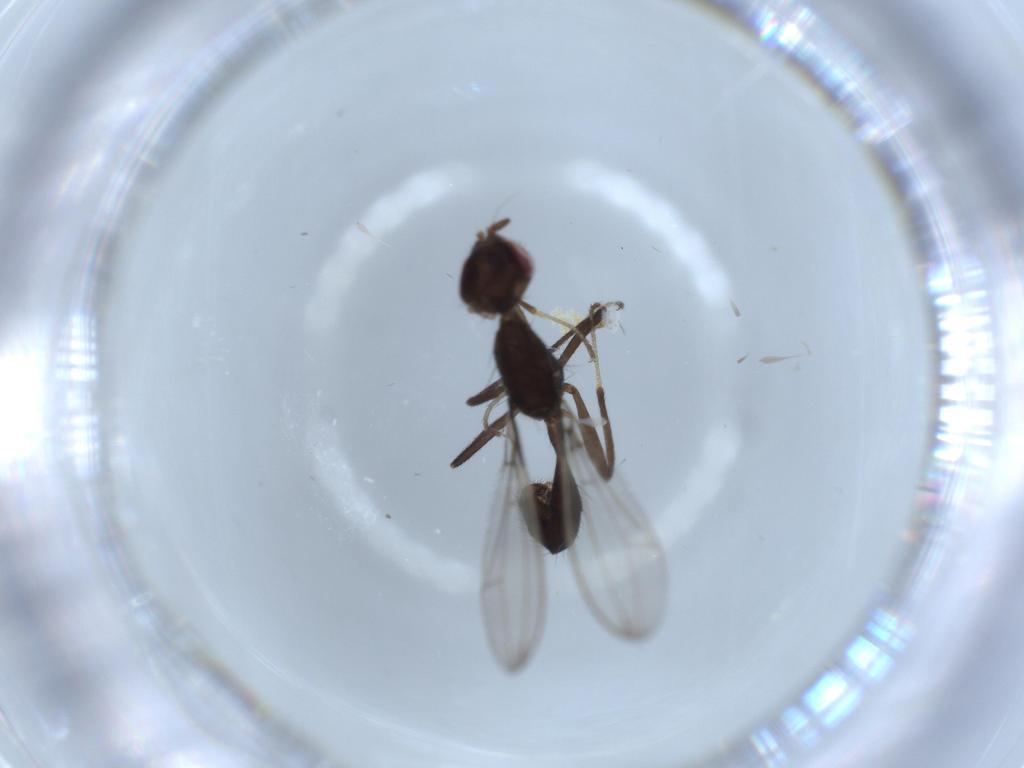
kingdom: Animalia
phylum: Arthropoda
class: Insecta
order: Diptera
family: Richardiidae
